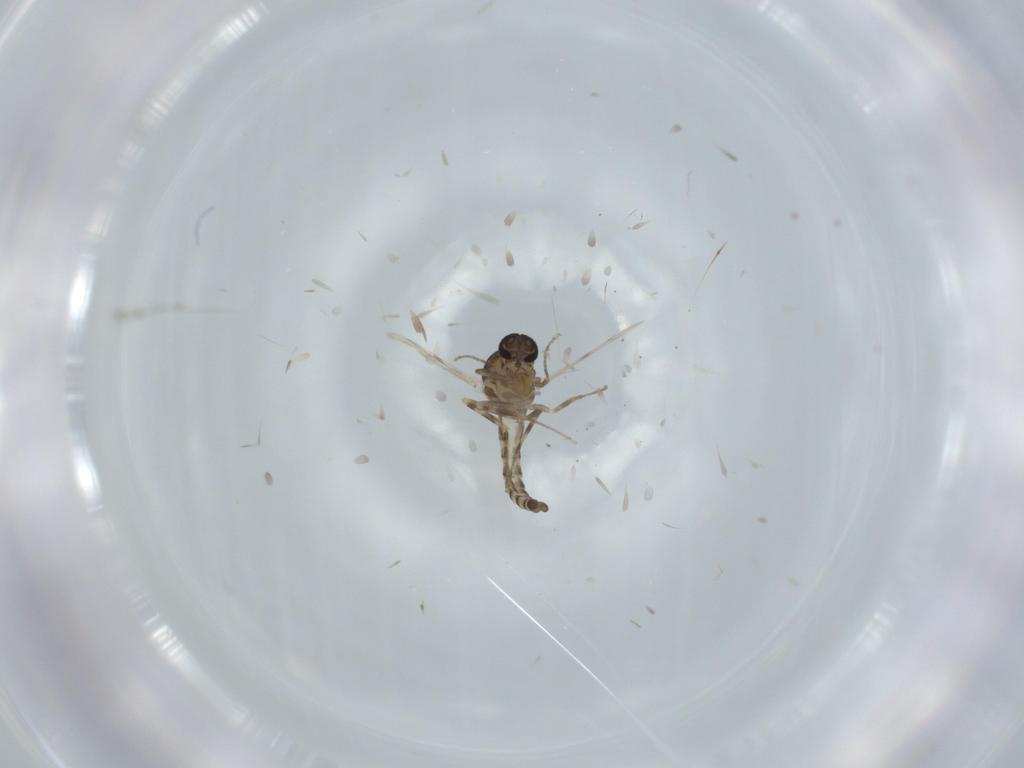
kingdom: Animalia
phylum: Arthropoda
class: Insecta
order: Diptera
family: Ceratopogonidae
